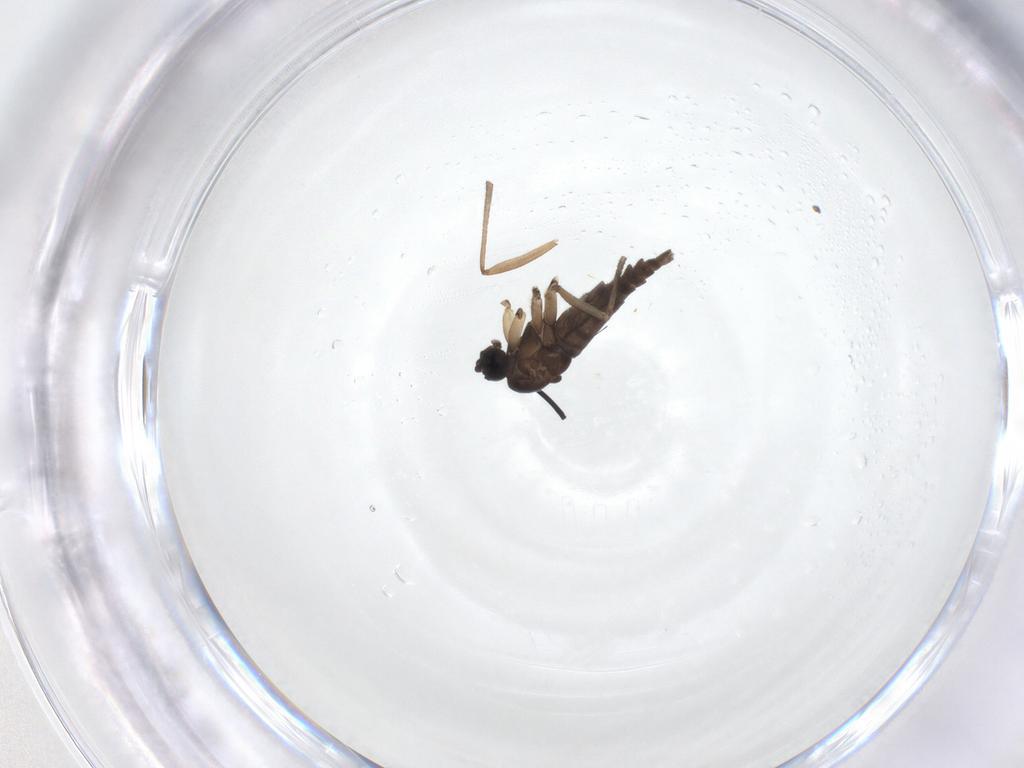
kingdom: Animalia
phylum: Arthropoda
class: Insecta
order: Diptera
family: Sciaridae
